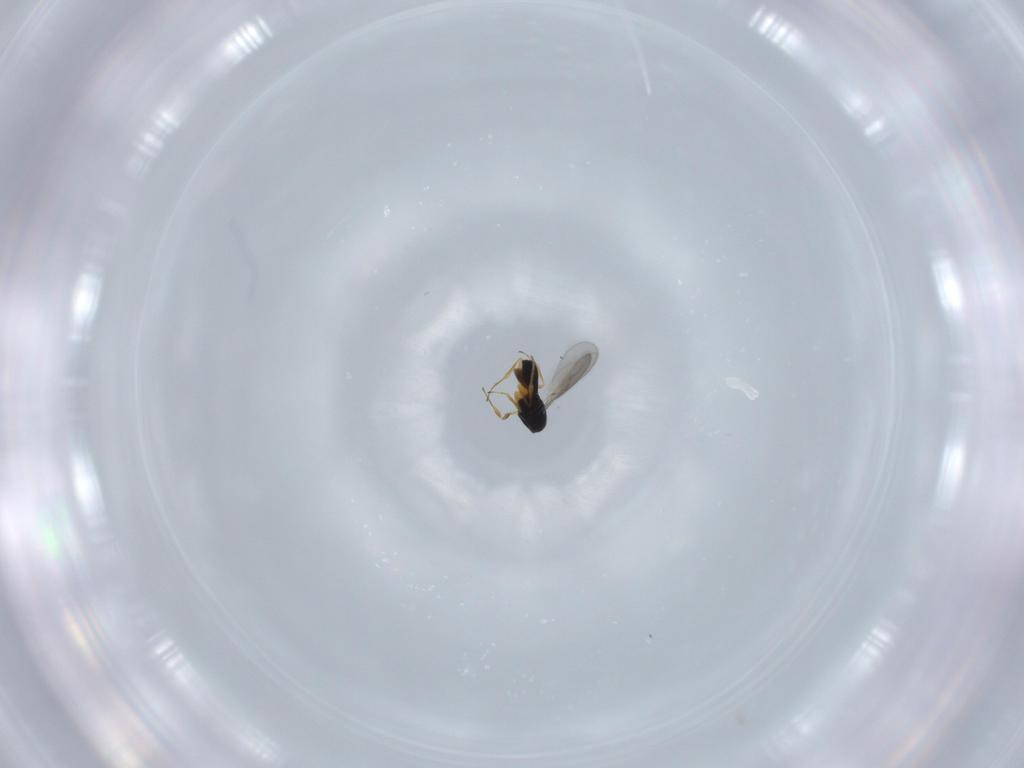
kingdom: Animalia
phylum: Arthropoda
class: Insecta
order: Hymenoptera
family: Scelionidae
